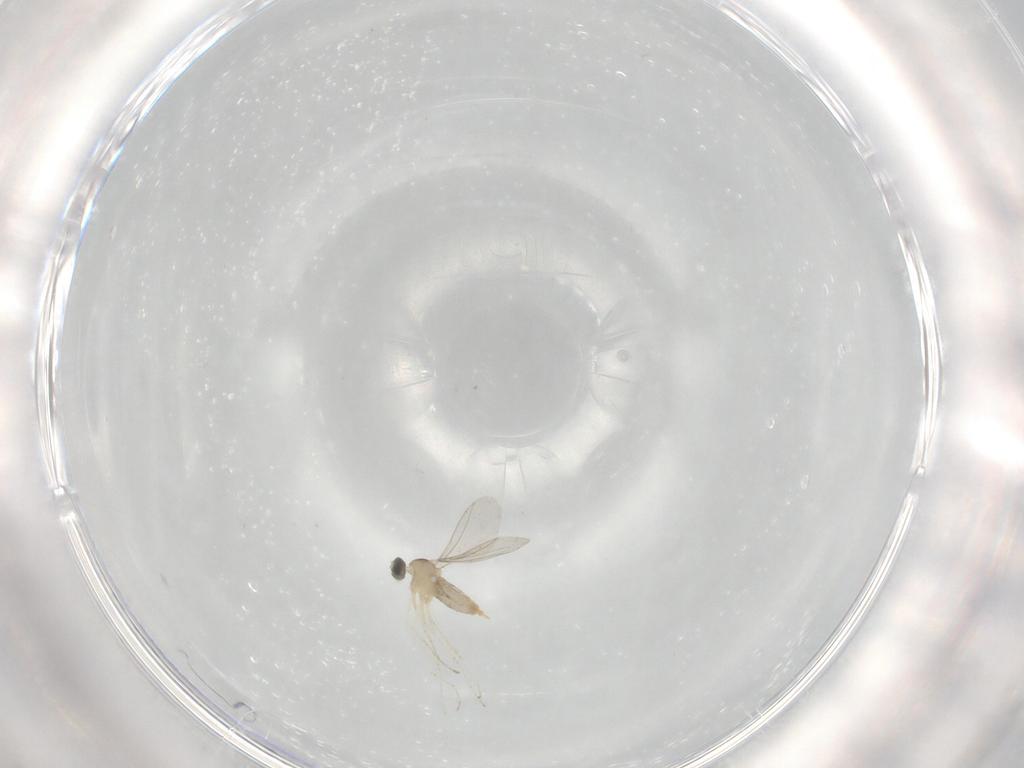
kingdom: Animalia
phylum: Arthropoda
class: Insecta
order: Diptera
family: Cecidomyiidae
